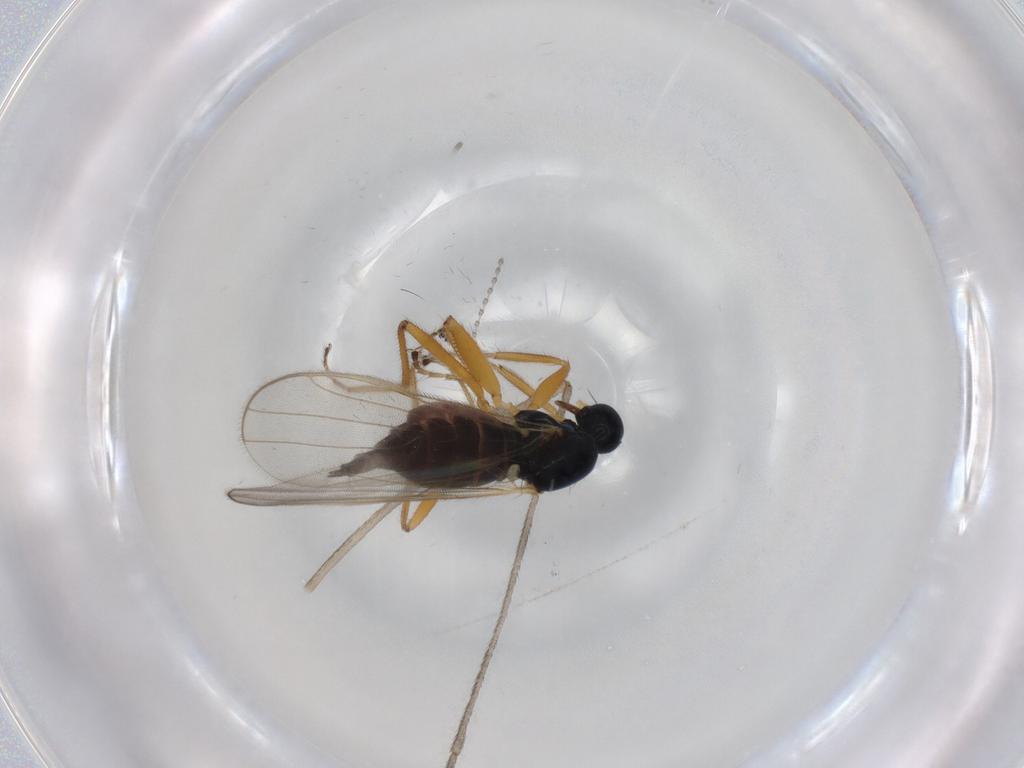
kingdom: Animalia
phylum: Arthropoda
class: Insecta
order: Diptera
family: Hybotidae
